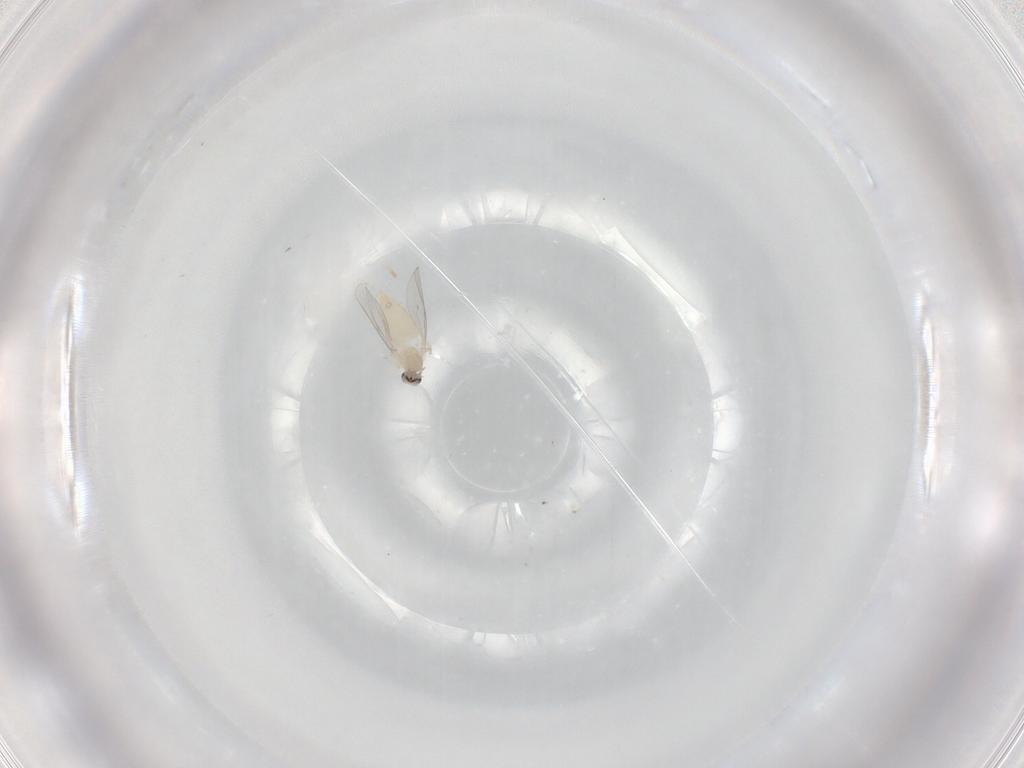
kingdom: Animalia
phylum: Arthropoda
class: Insecta
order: Diptera
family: Cecidomyiidae
